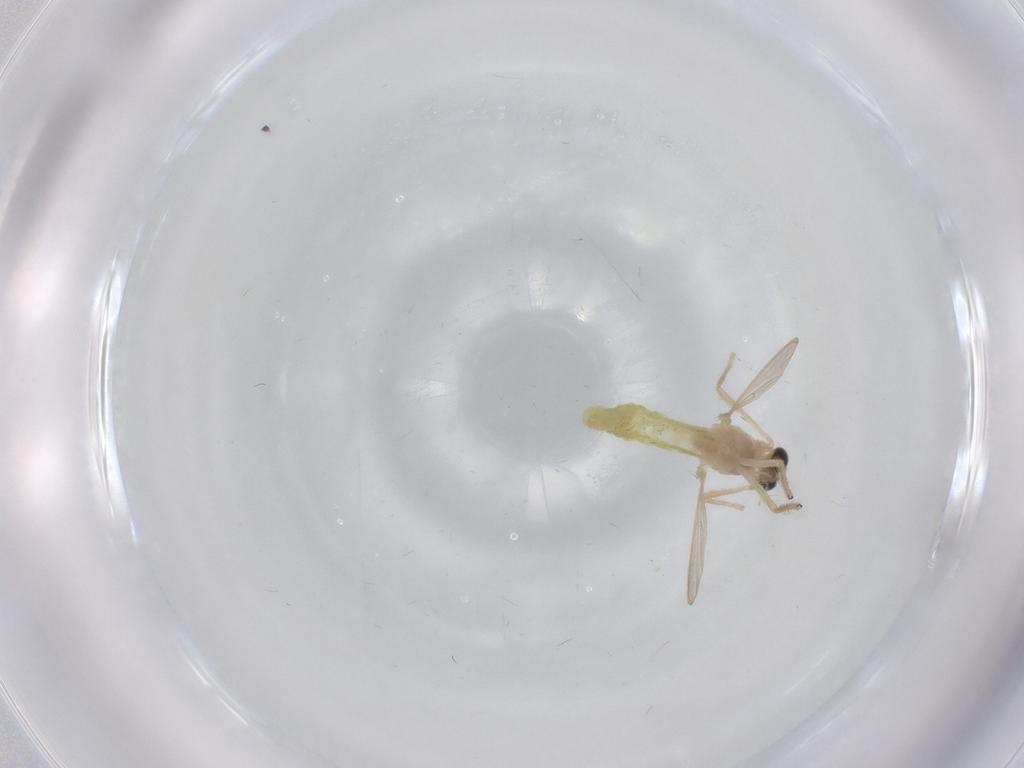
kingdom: Animalia
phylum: Arthropoda
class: Insecta
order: Diptera
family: Chironomidae
